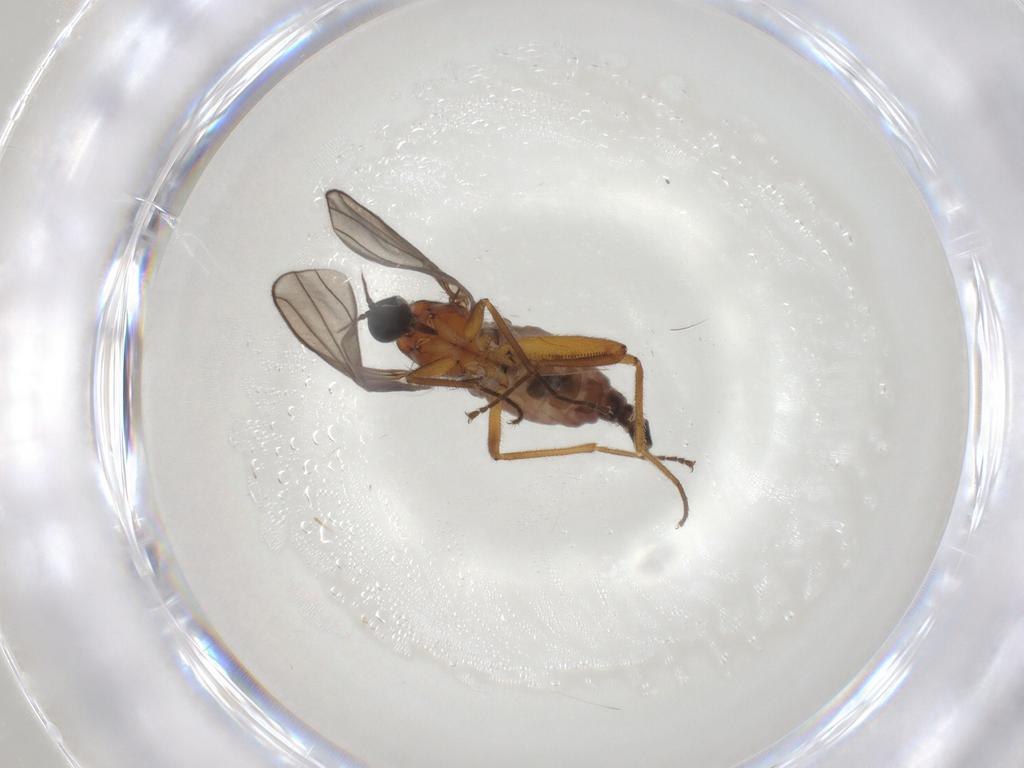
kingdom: Animalia
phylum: Arthropoda
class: Insecta
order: Diptera
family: Hybotidae
